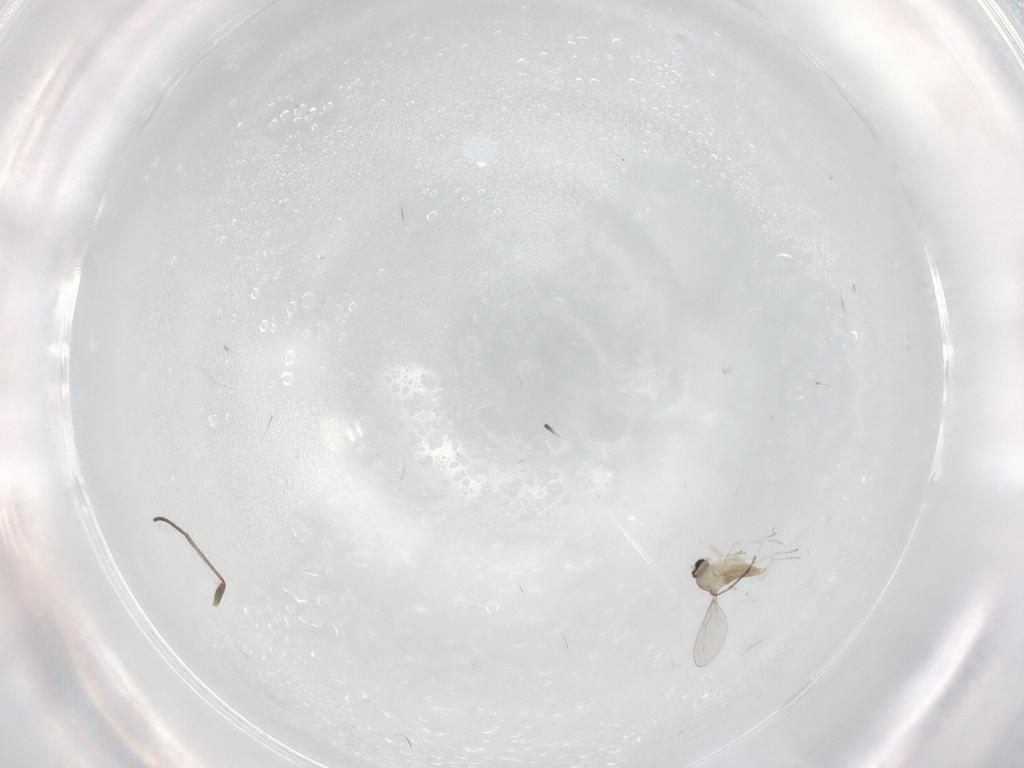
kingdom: Animalia
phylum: Arthropoda
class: Insecta
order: Diptera
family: Cecidomyiidae
